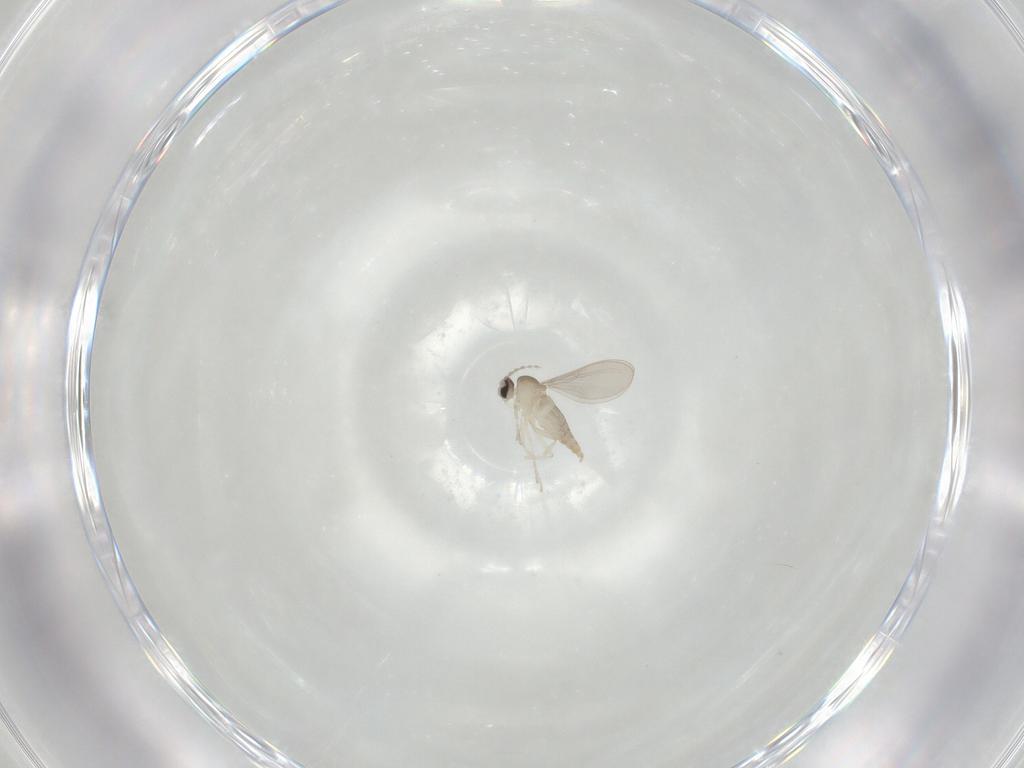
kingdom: Animalia
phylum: Arthropoda
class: Insecta
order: Diptera
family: Cecidomyiidae
